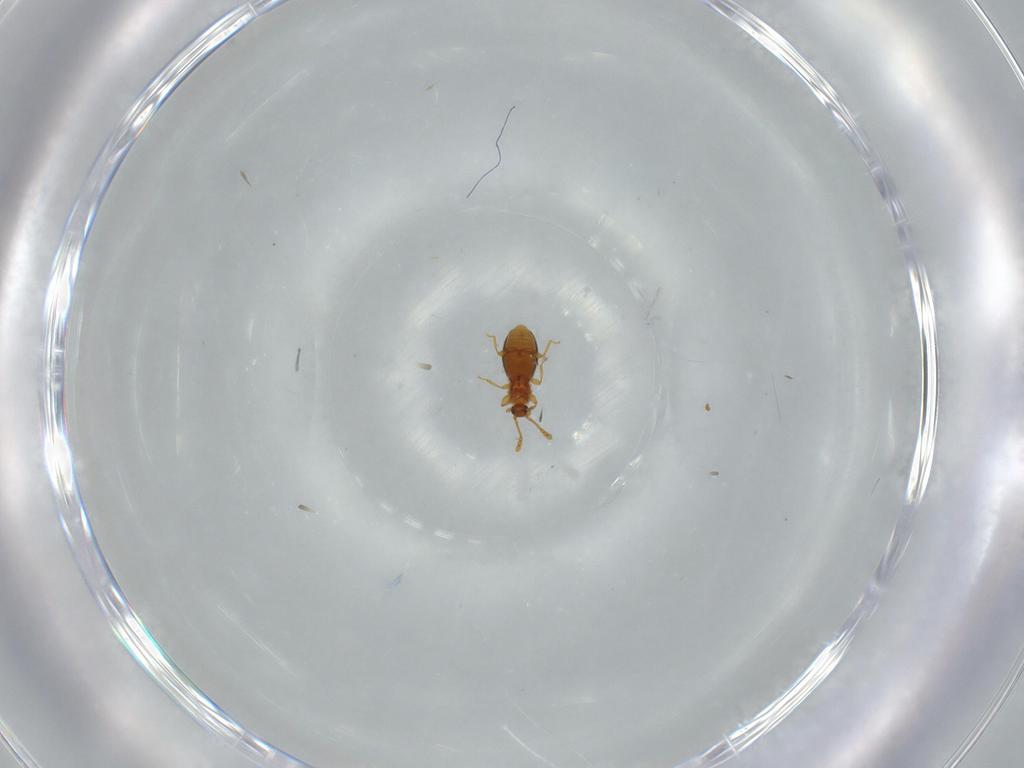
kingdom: Animalia
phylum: Arthropoda
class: Insecta
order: Coleoptera
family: Staphylinidae
